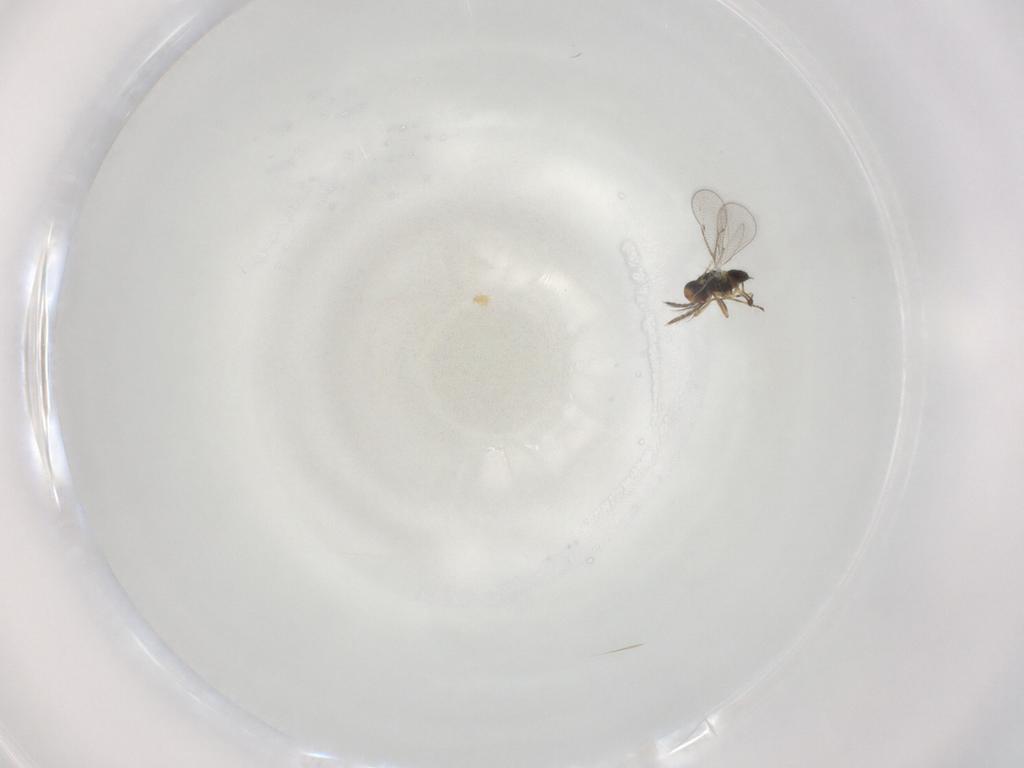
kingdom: Animalia
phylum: Arthropoda
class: Insecta
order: Hymenoptera
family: Eulophidae
